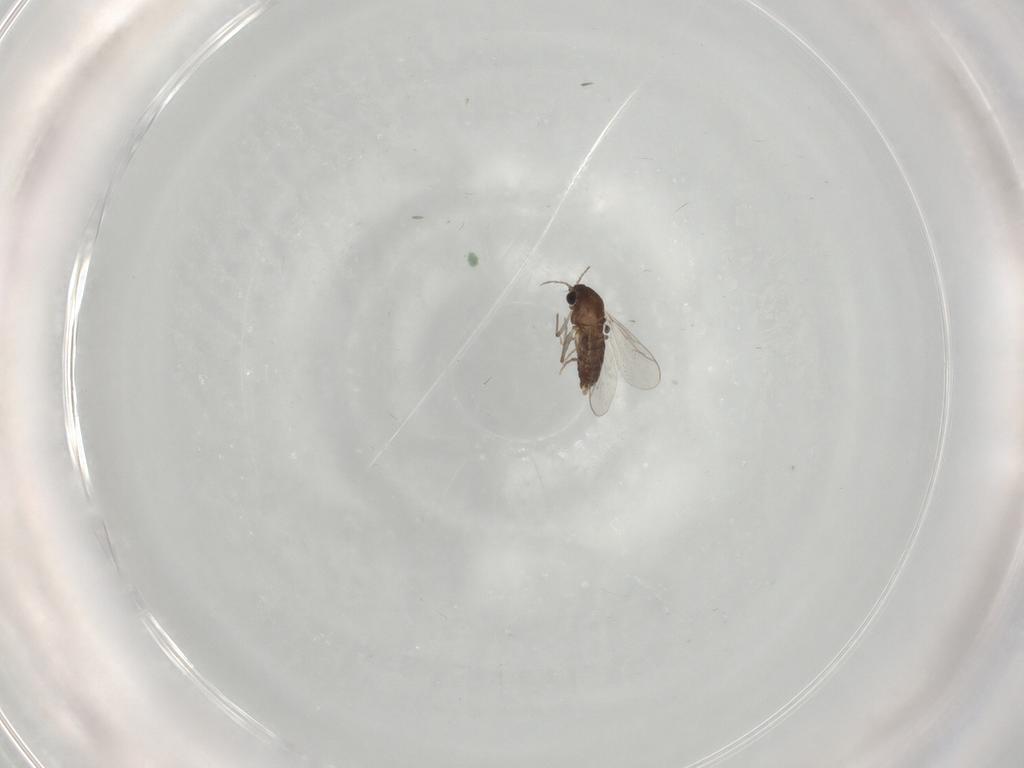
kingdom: Animalia
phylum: Arthropoda
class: Insecta
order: Diptera
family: Chironomidae
